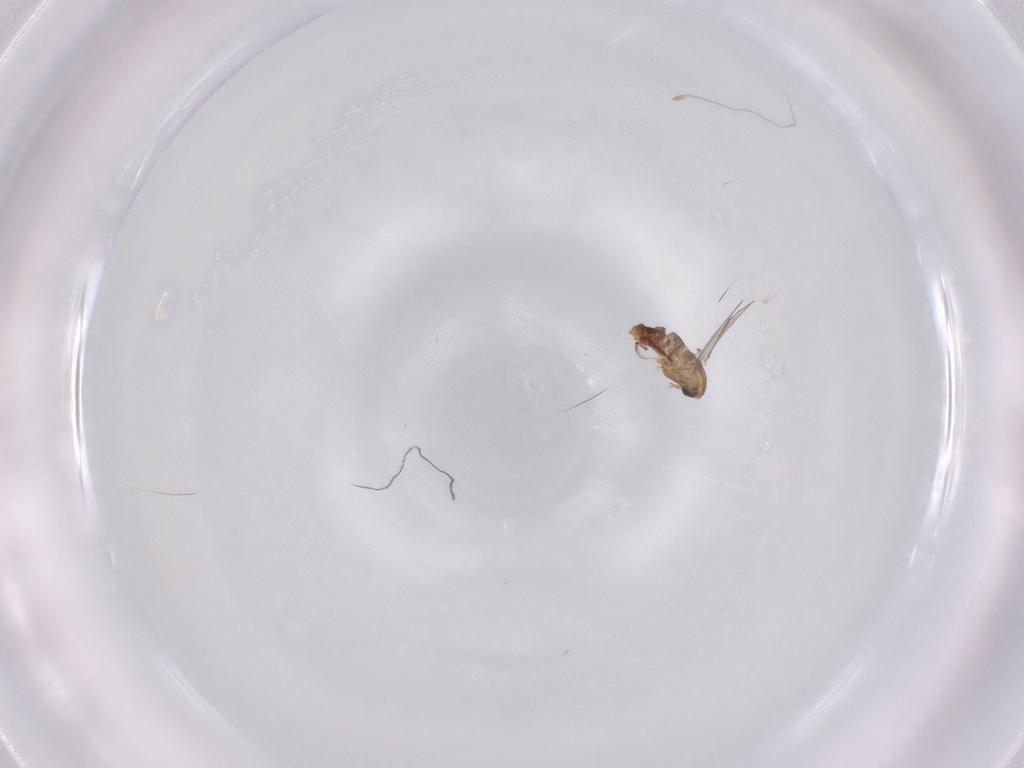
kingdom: Animalia
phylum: Arthropoda
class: Insecta
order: Diptera
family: Chironomidae
